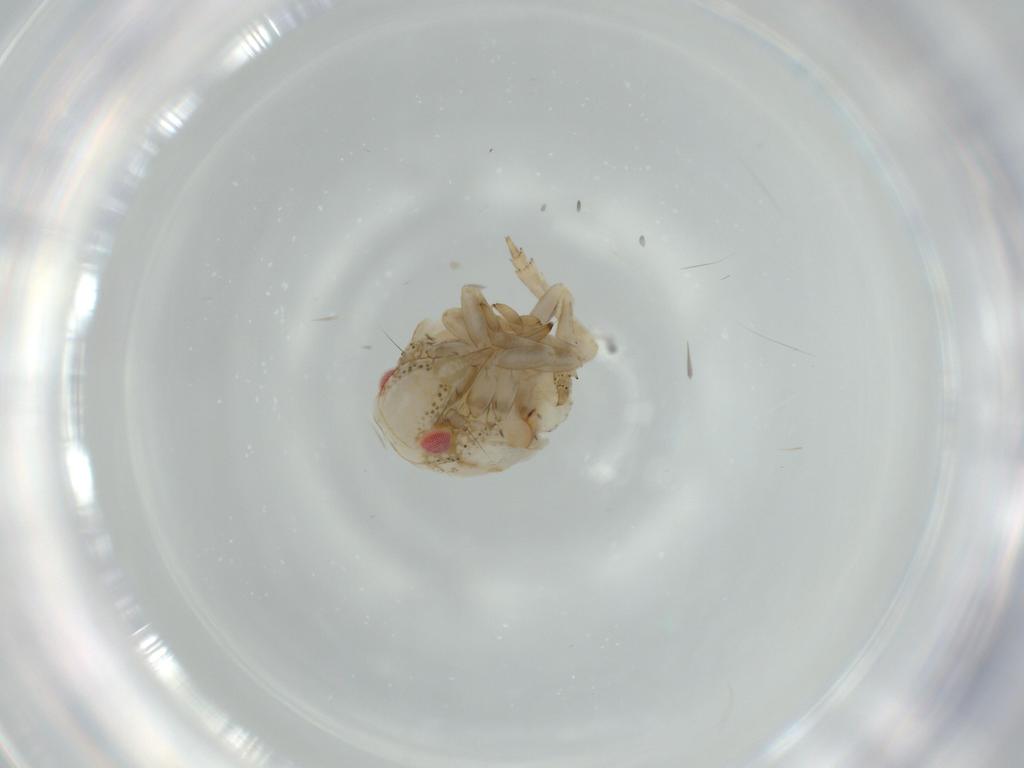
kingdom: Animalia
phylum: Arthropoda
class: Insecta
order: Hemiptera
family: Acanaloniidae
